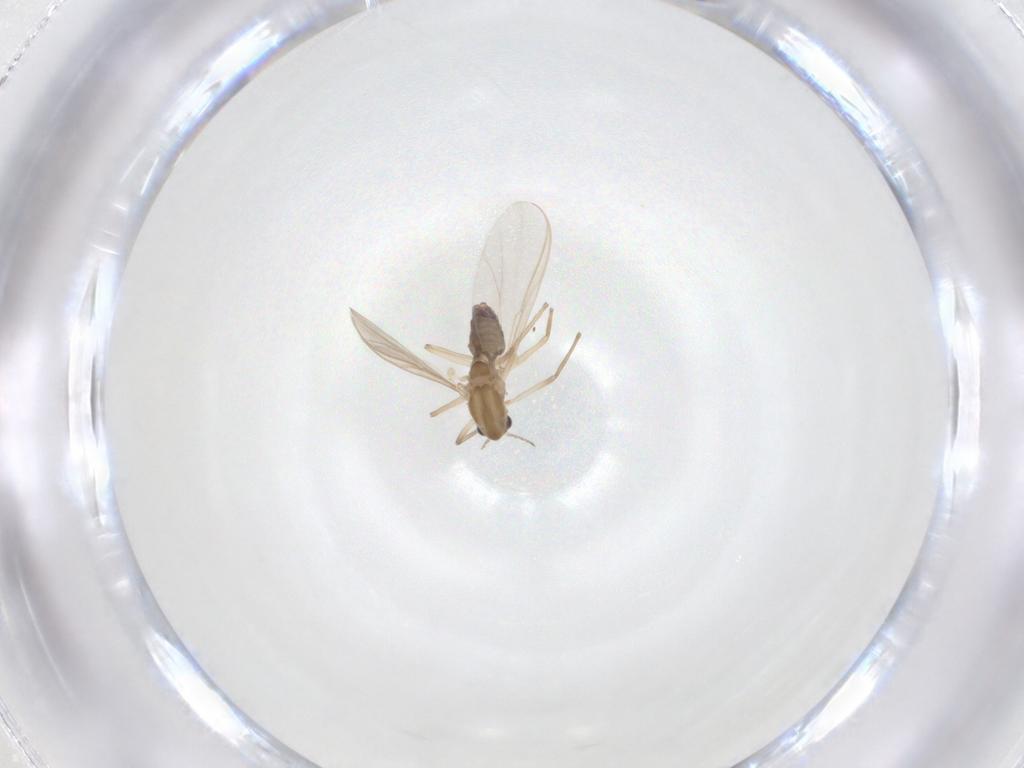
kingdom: Animalia
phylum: Arthropoda
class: Insecta
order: Diptera
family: Chironomidae
